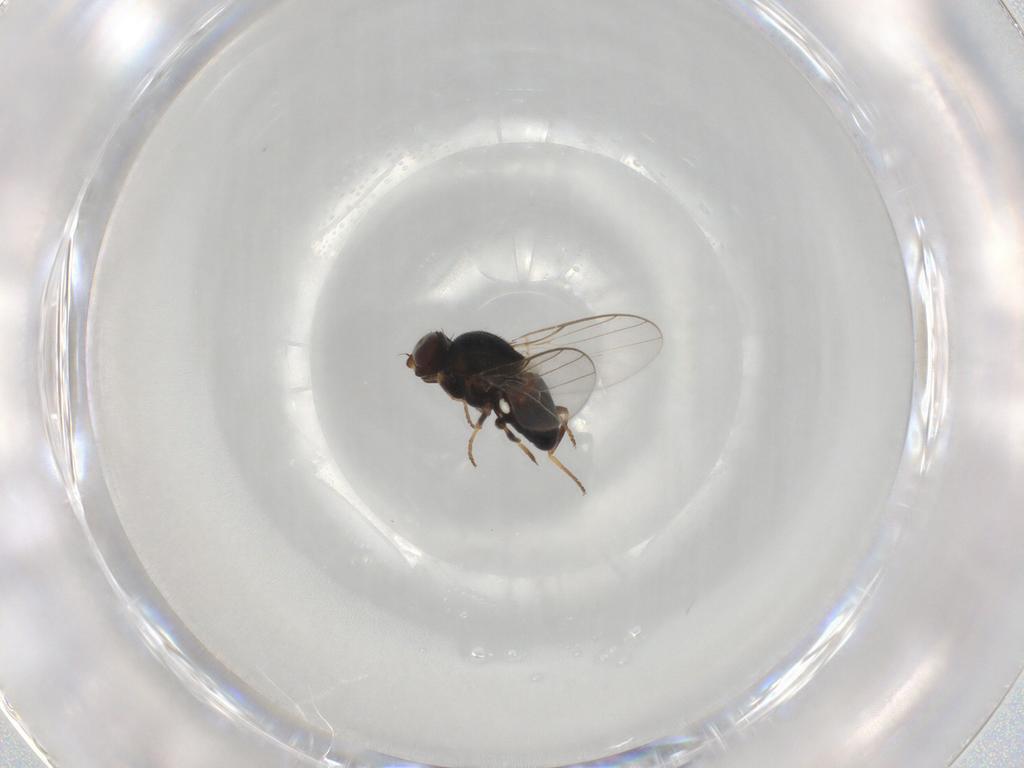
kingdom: Animalia
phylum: Arthropoda
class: Insecta
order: Diptera
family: Chloropidae
